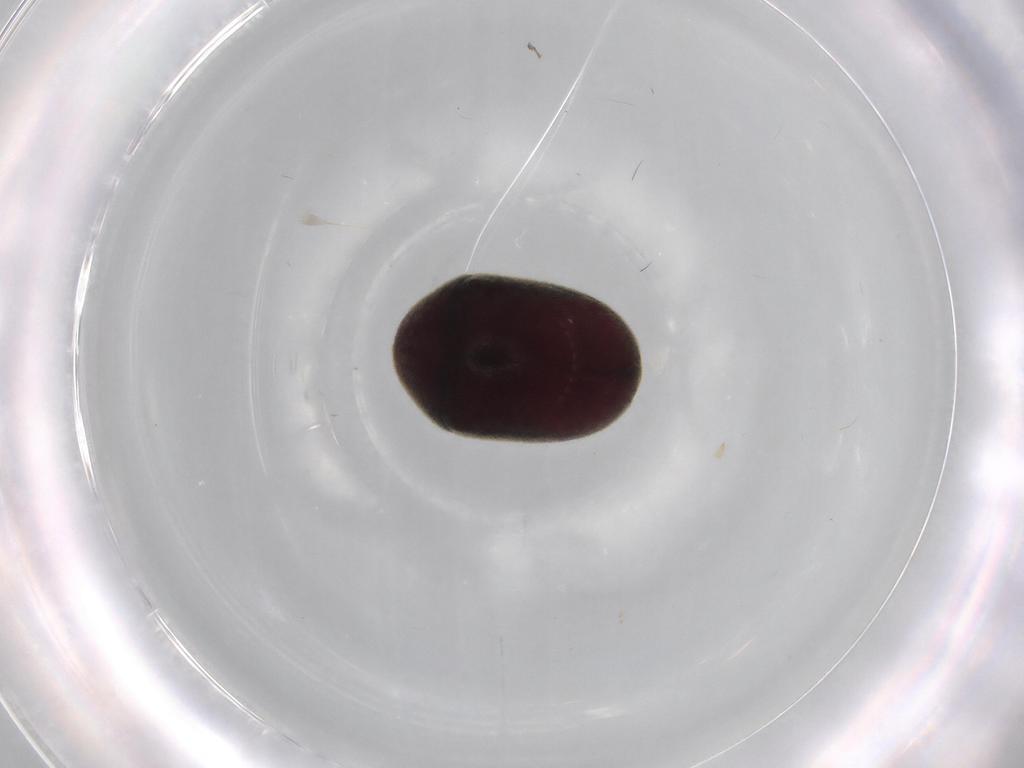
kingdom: Animalia
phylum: Arthropoda
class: Insecta
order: Coleoptera
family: Ptinidae
